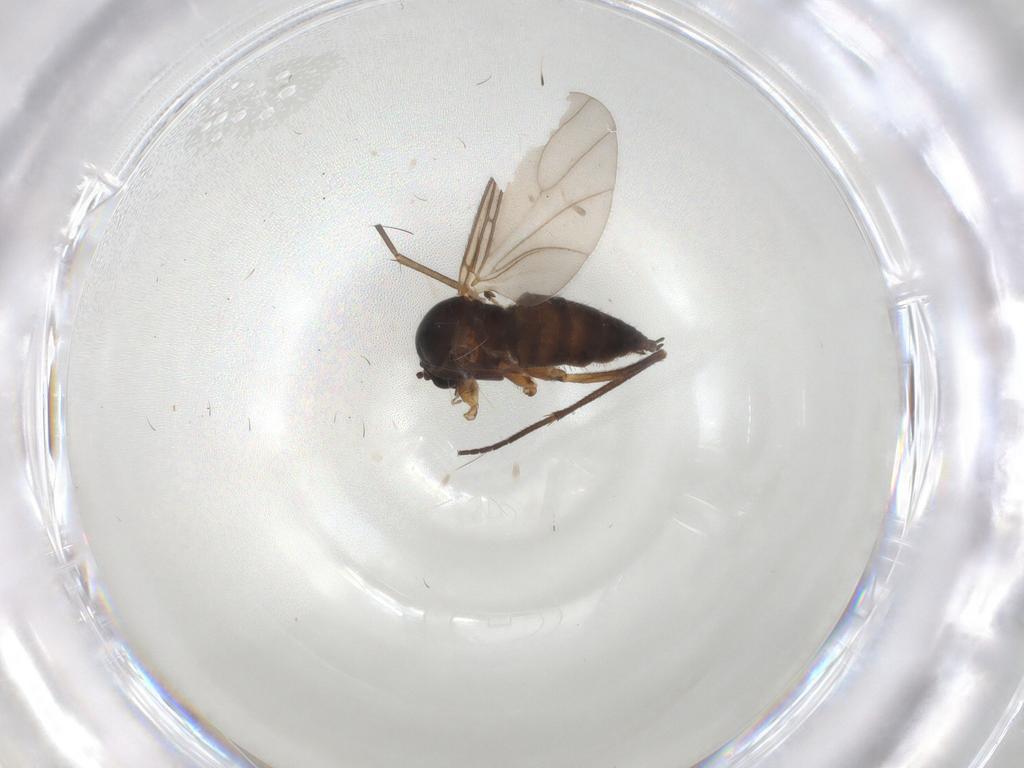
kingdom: Animalia
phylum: Arthropoda
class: Insecta
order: Diptera
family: Sciaridae
